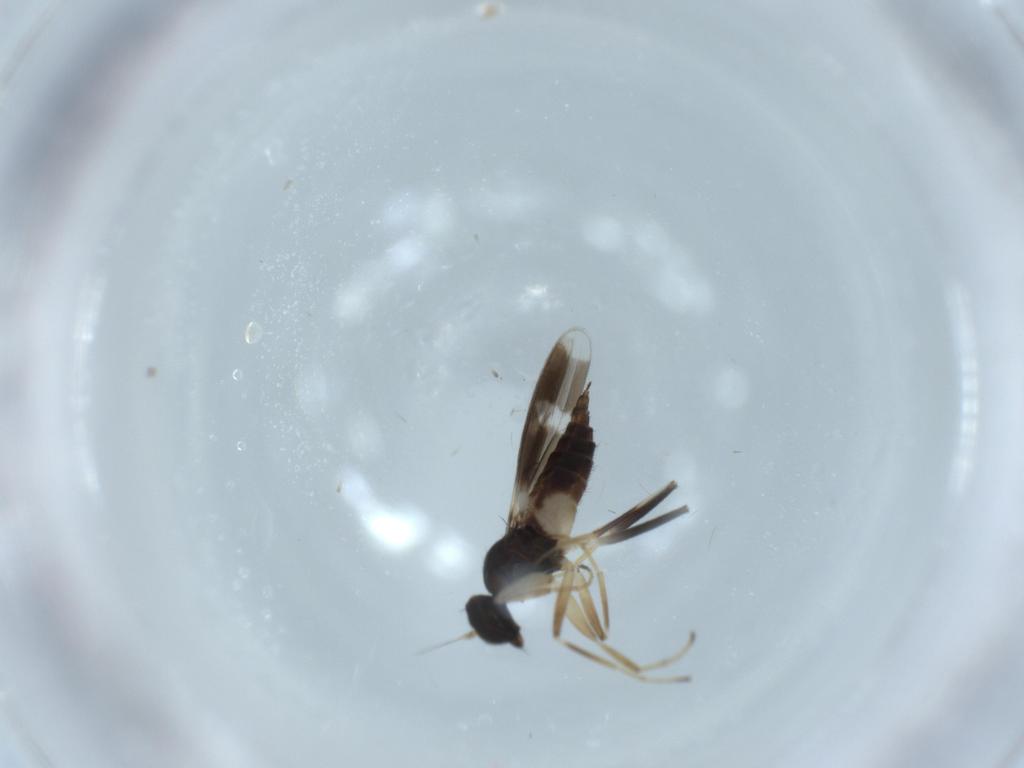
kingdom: Animalia
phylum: Arthropoda
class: Insecta
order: Diptera
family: Hybotidae
